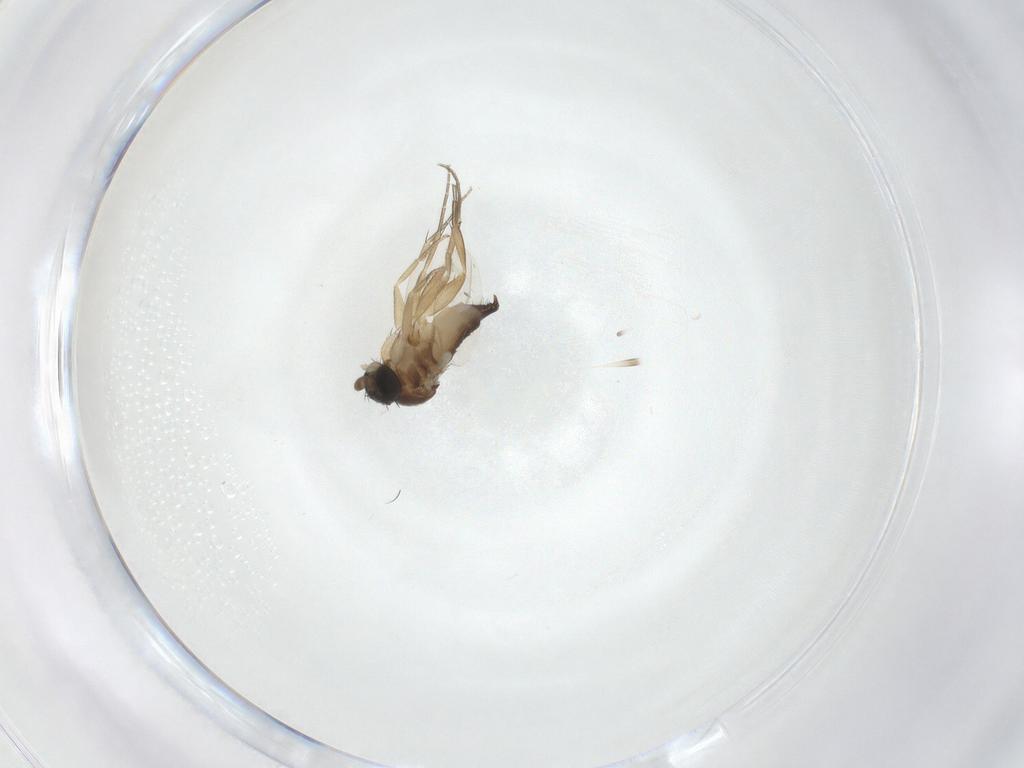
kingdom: Animalia
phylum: Arthropoda
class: Insecta
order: Diptera
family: Phoridae
